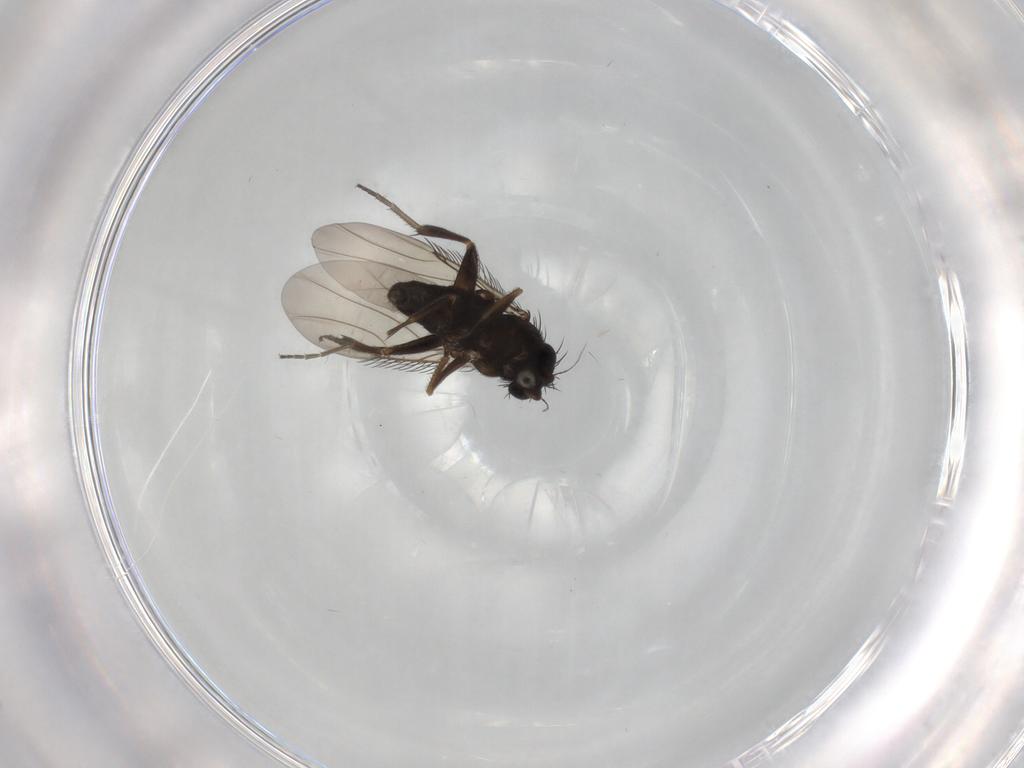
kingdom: Animalia
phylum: Arthropoda
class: Insecta
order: Diptera
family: Phoridae
